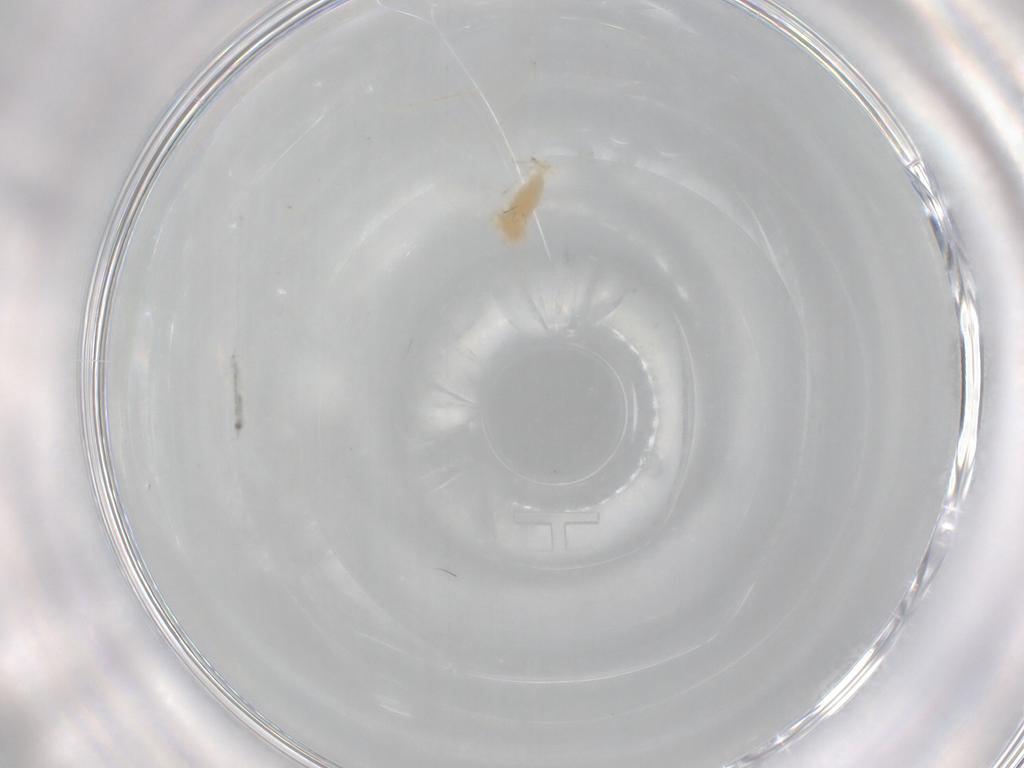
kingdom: Animalia
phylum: Arthropoda
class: Insecta
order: Diptera
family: Cecidomyiidae
